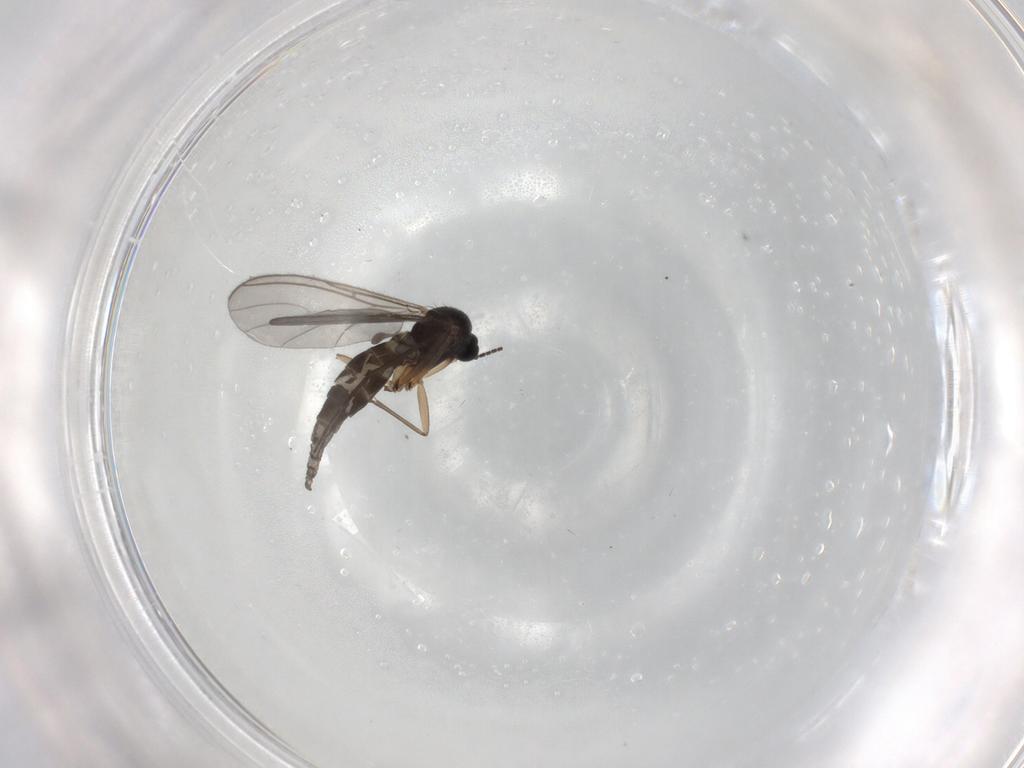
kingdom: Animalia
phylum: Arthropoda
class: Insecta
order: Diptera
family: Sciaridae
